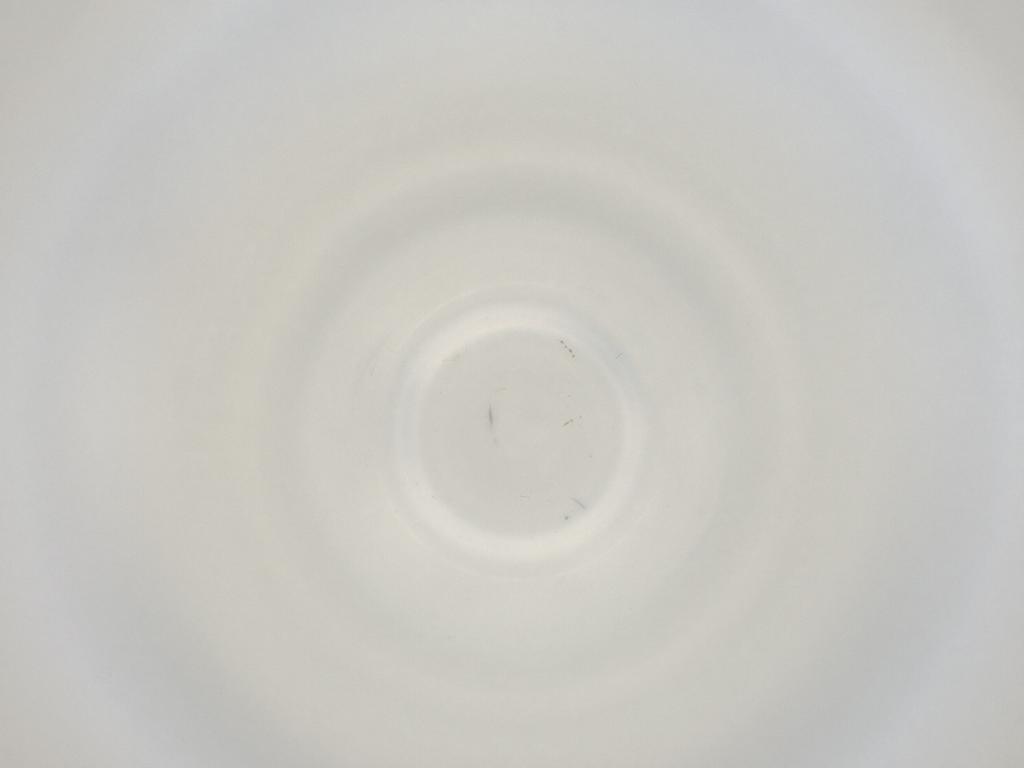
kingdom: Animalia
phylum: Arthropoda
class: Insecta
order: Diptera
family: Cecidomyiidae
